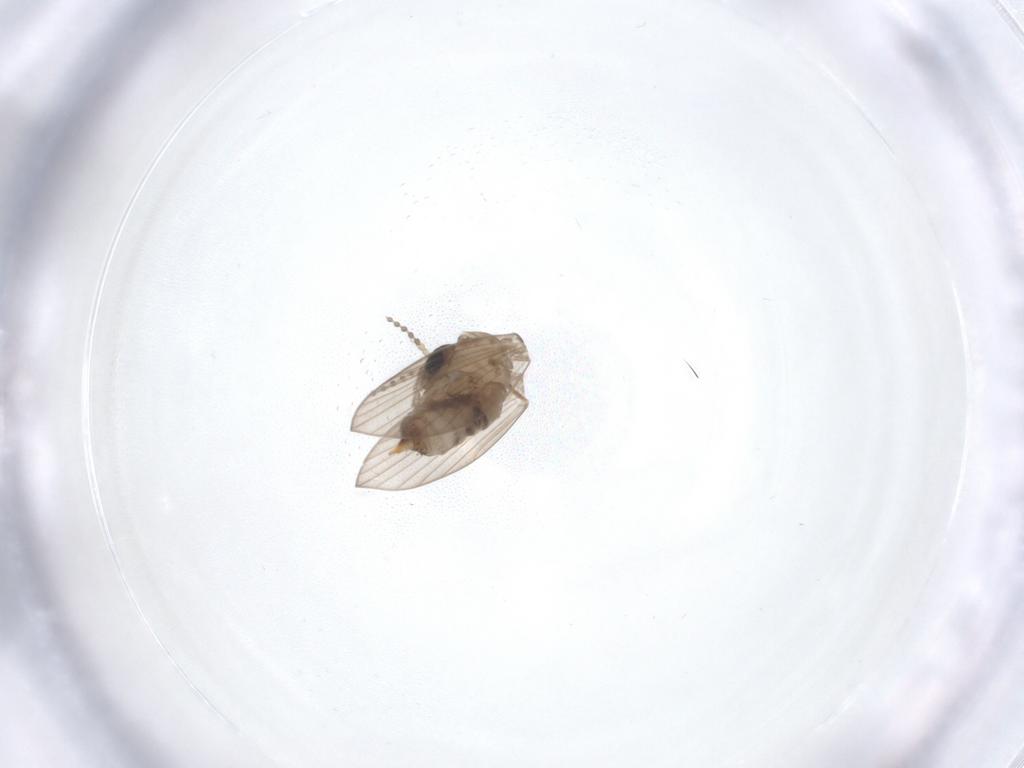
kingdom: Animalia
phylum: Arthropoda
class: Insecta
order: Diptera
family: Psychodidae
